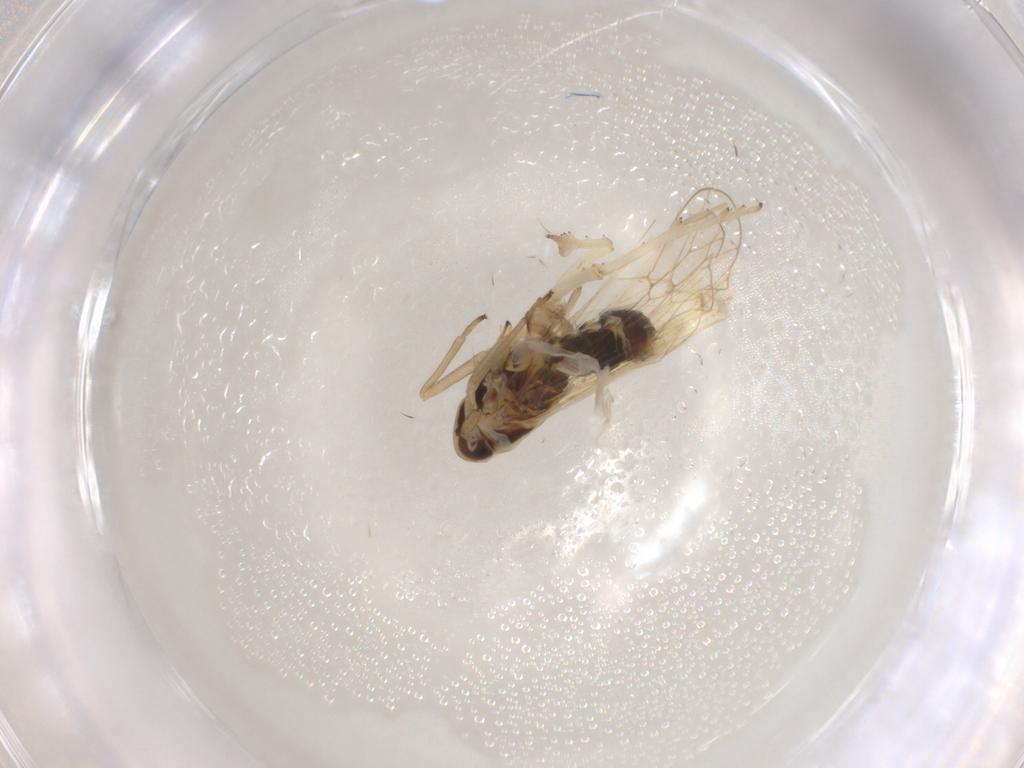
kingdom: Animalia
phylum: Arthropoda
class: Insecta
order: Hemiptera
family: Delphacidae
